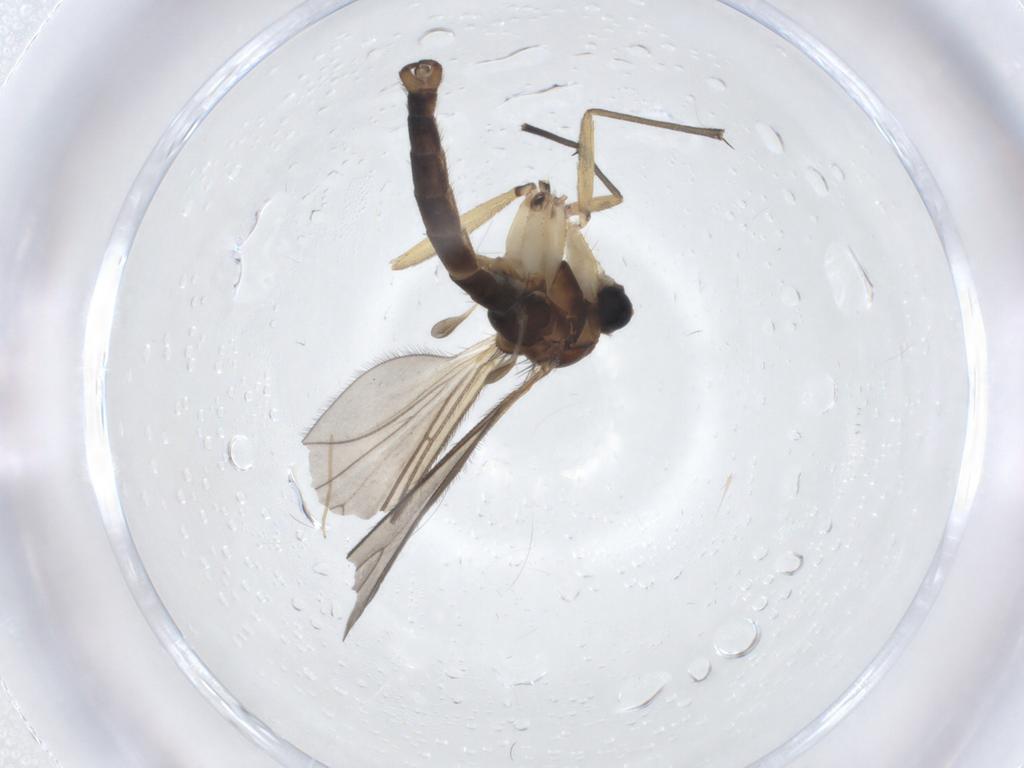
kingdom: Animalia
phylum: Arthropoda
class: Insecta
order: Diptera
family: Sciaridae
